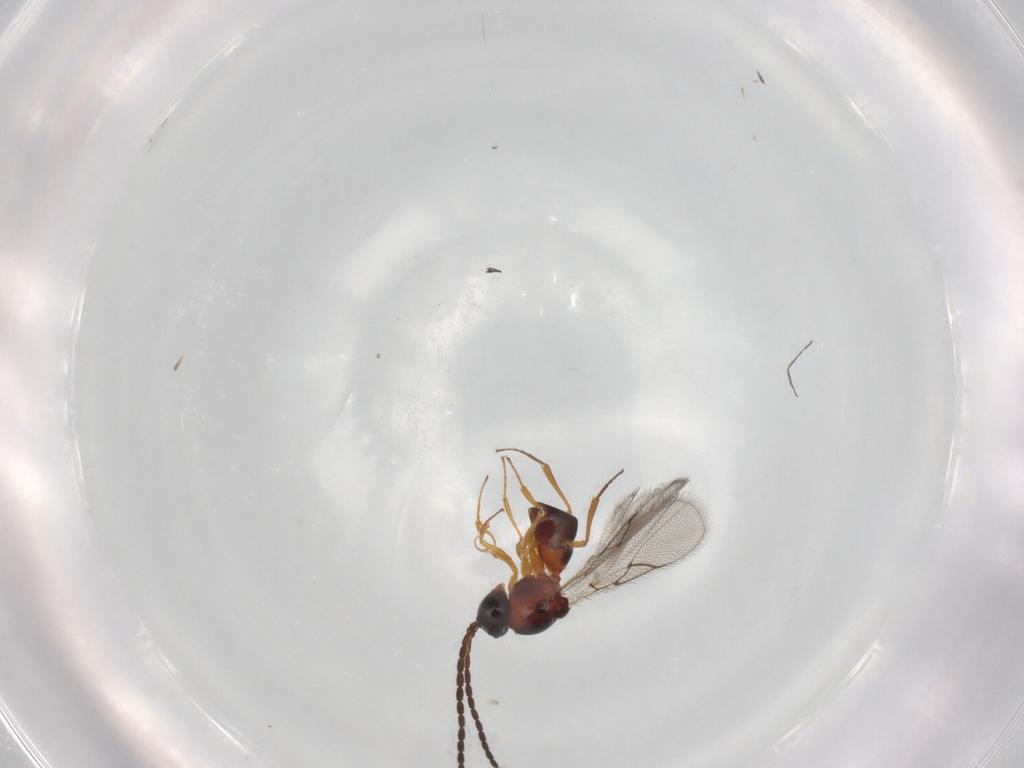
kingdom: Animalia
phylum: Arthropoda
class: Insecta
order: Hymenoptera
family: Figitidae
